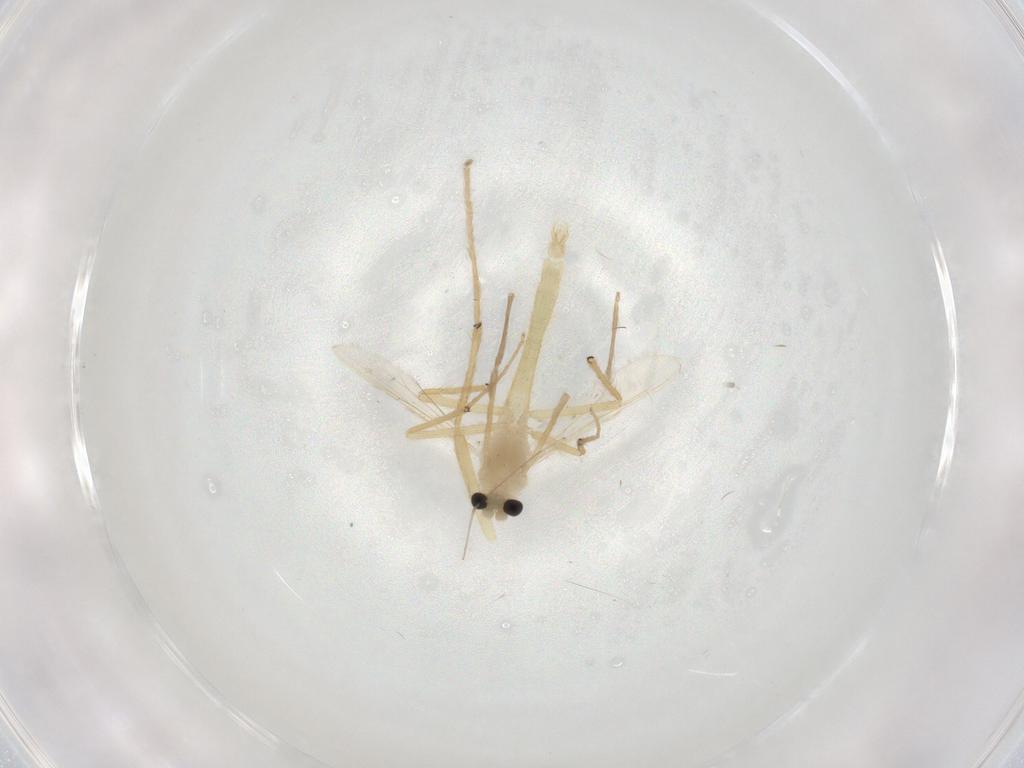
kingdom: Animalia
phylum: Arthropoda
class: Insecta
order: Diptera
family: Chironomidae
